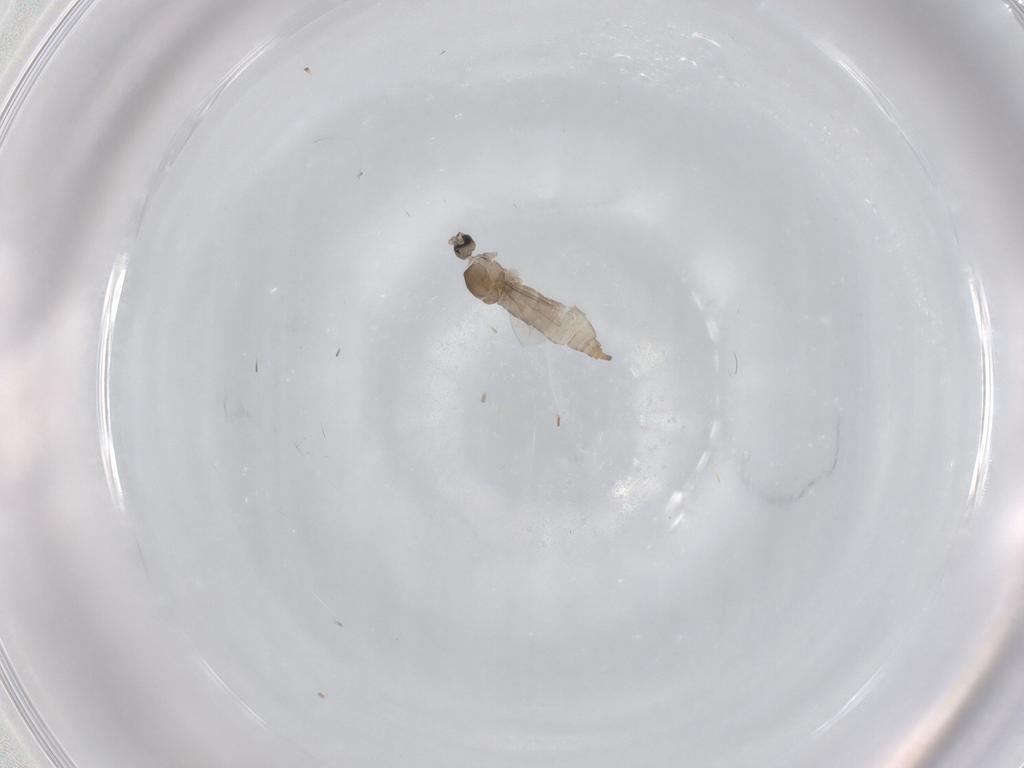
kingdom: Animalia
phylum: Arthropoda
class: Insecta
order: Diptera
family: Cecidomyiidae
